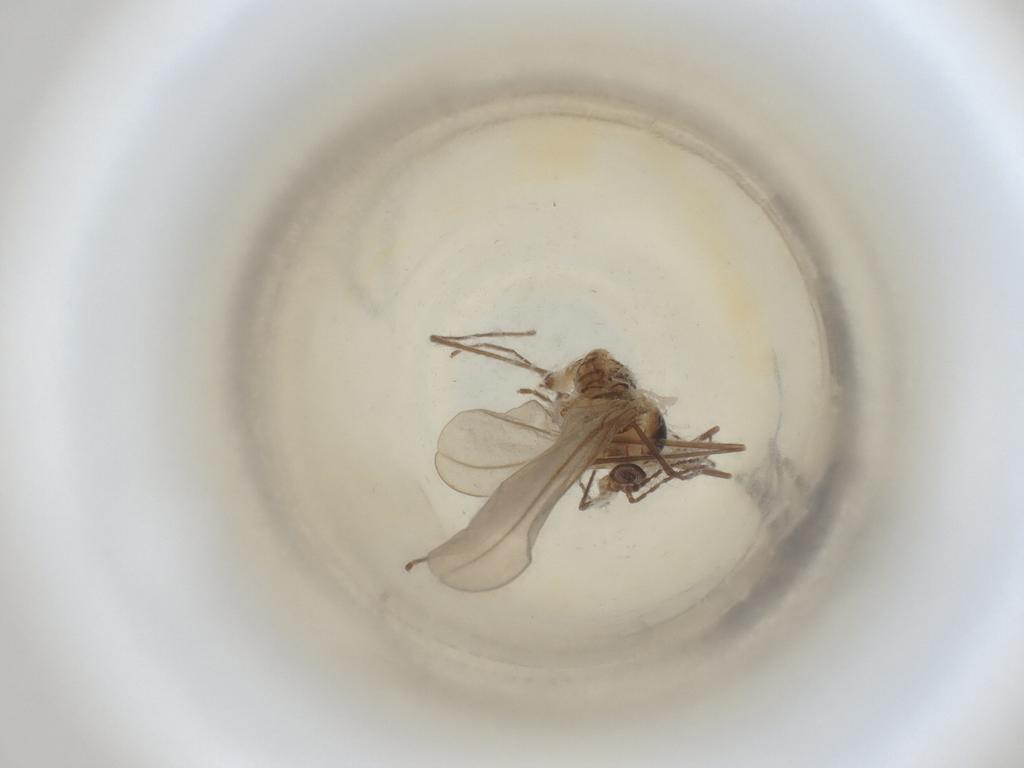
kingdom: Animalia
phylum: Arthropoda
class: Insecta
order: Diptera
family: Cecidomyiidae
